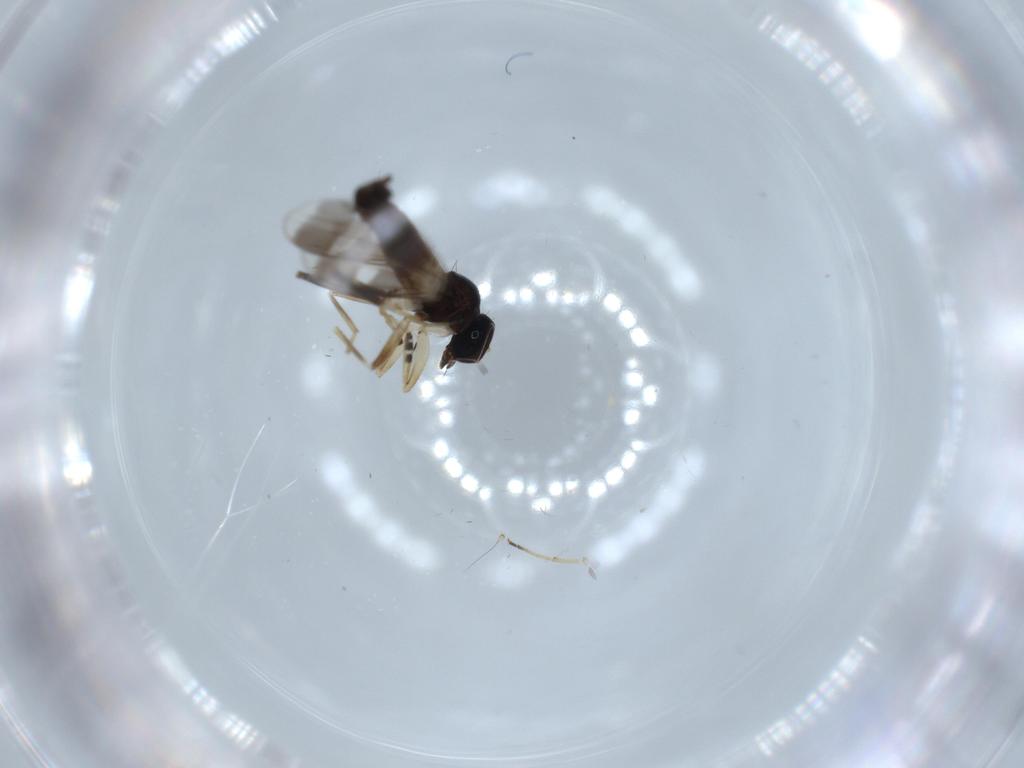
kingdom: Animalia
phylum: Arthropoda
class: Insecta
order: Diptera
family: Hybotidae
